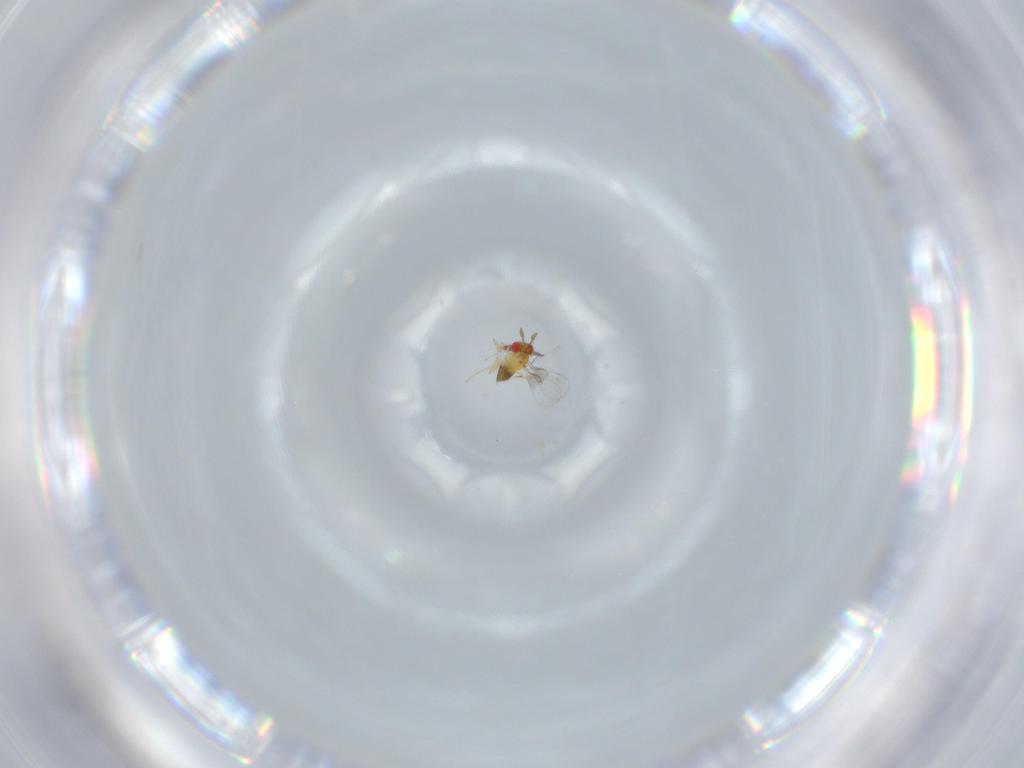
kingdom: Animalia
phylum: Arthropoda
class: Insecta
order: Hymenoptera
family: Trichogrammatidae
